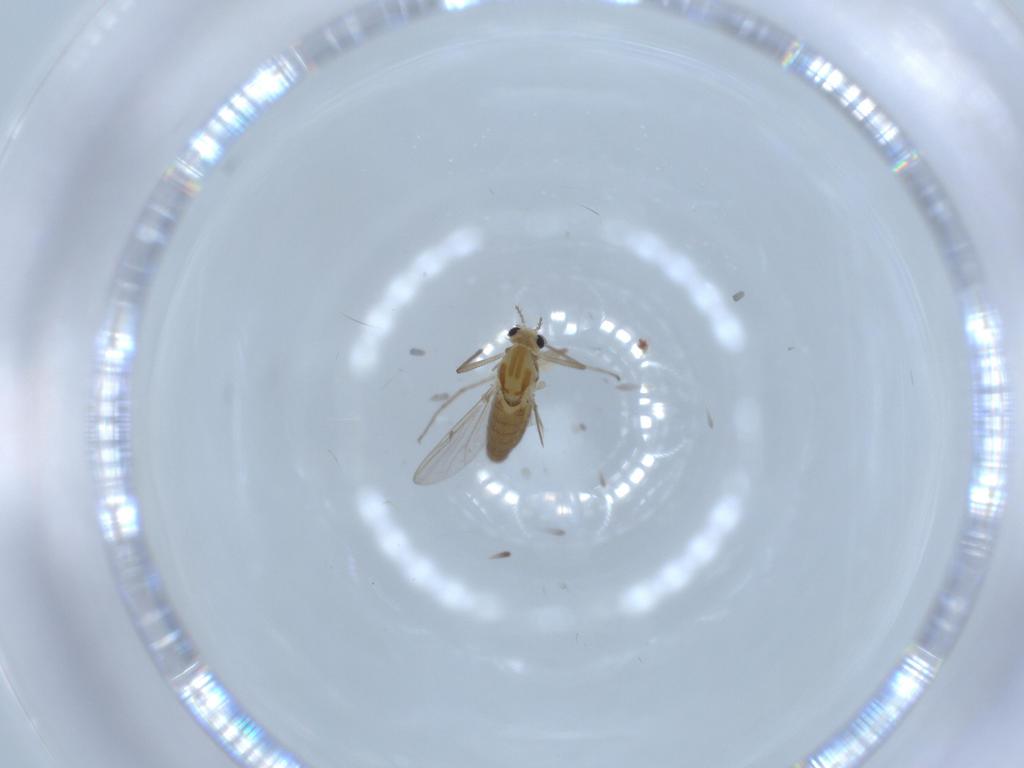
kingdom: Animalia
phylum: Arthropoda
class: Insecta
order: Diptera
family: Chironomidae
